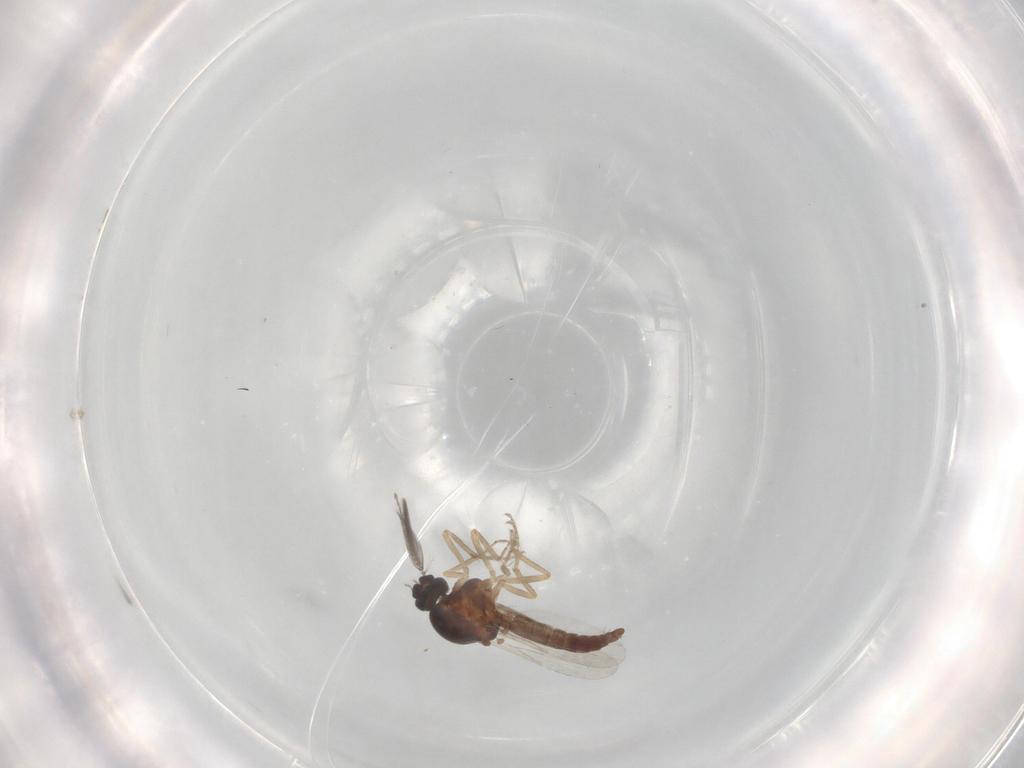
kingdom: Animalia
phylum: Arthropoda
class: Insecta
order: Diptera
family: Ceratopogonidae
